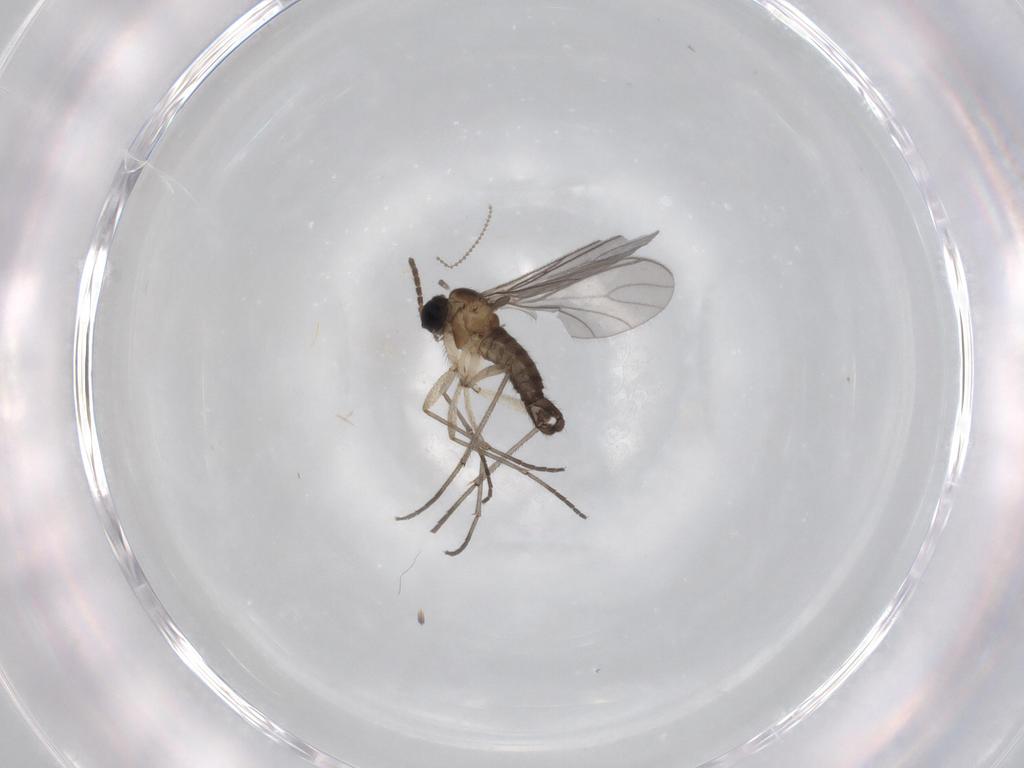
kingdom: Animalia
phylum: Arthropoda
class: Insecta
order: Diptera
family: Sciaridae
